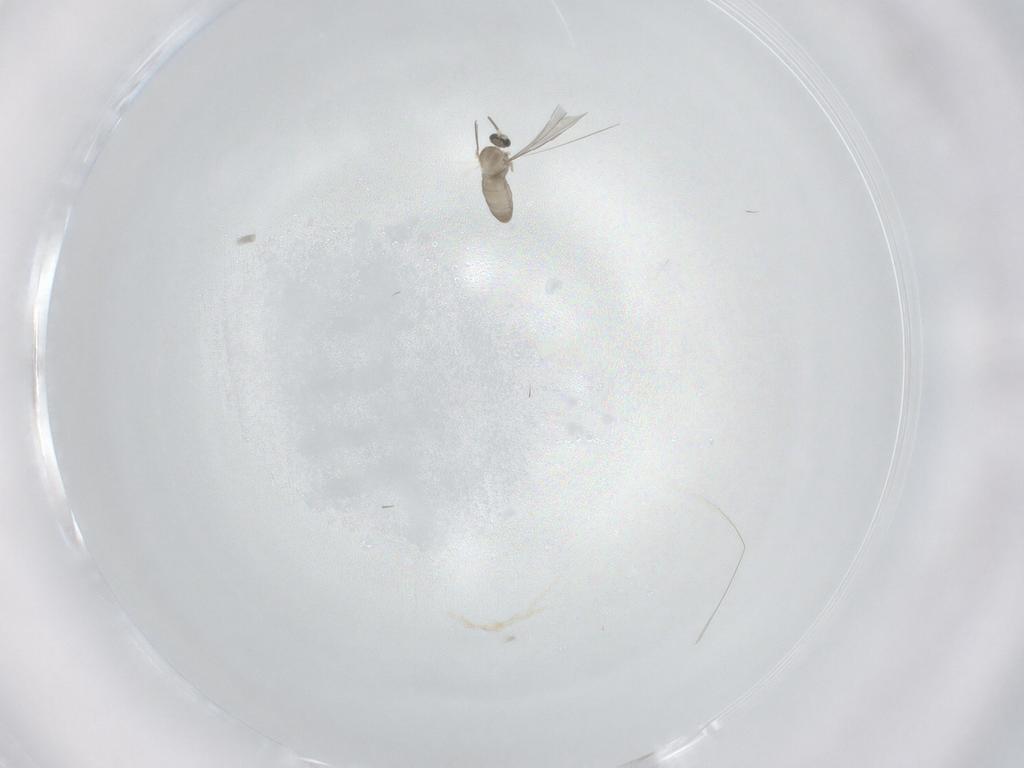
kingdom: Animalia
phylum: Arthropoda
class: Insecta
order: Diptera
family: Cecidomyiidae
